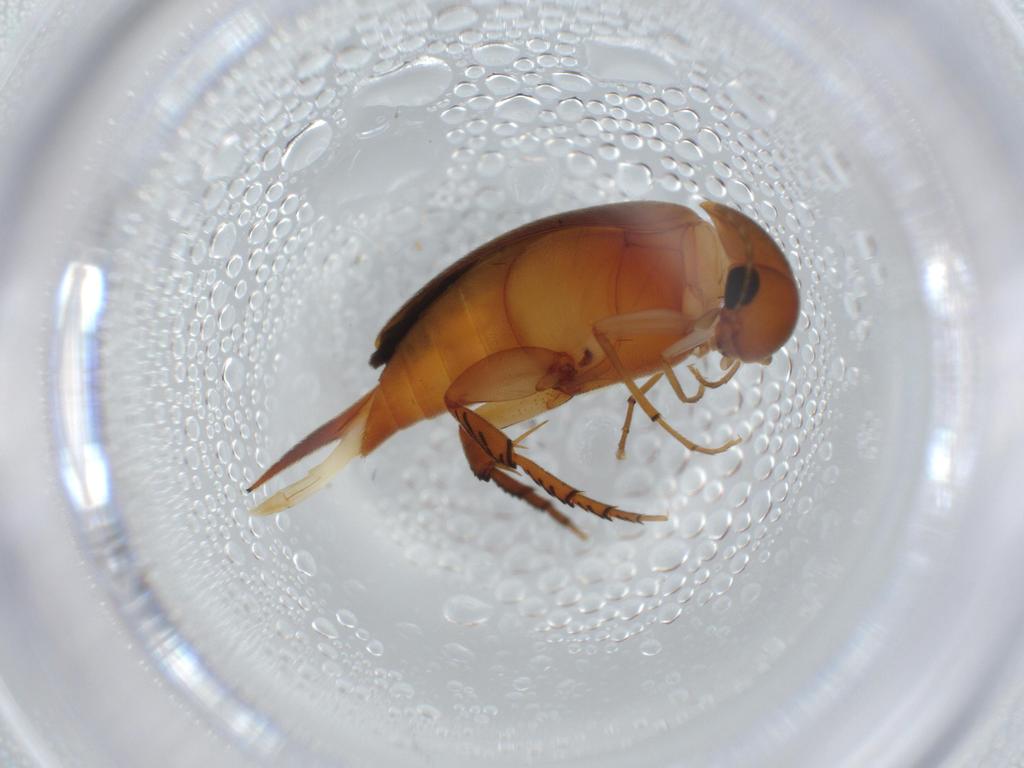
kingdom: Animalia
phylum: Arthropoda
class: Insecta
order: Coleoptera
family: Mordellidae
